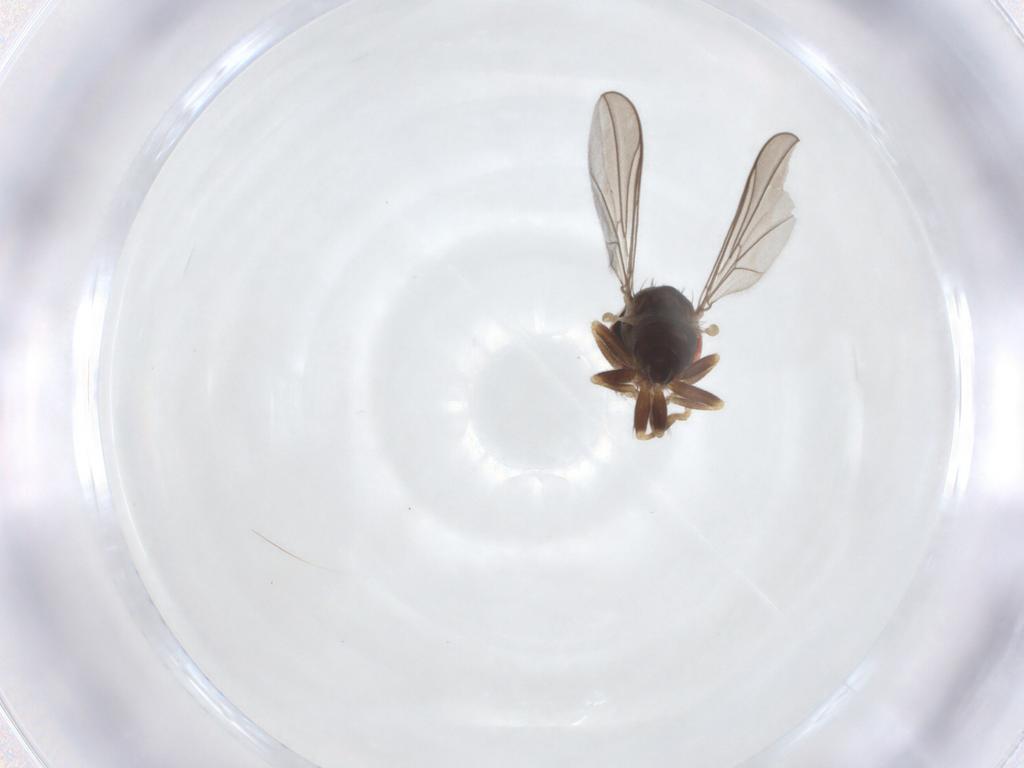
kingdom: Animalia
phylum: Arthropoda
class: Insecta
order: Diptera
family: Pipunculidae
